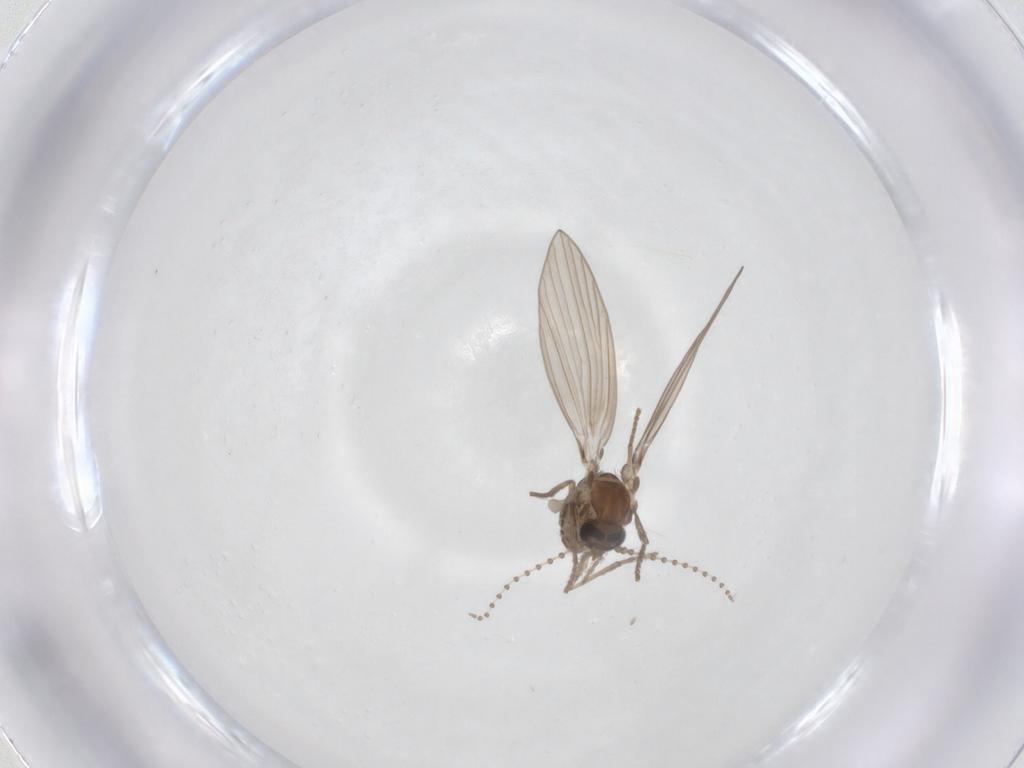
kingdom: Animalia
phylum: Arthropoda
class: Insecta
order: Diptera
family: Psychodidae
